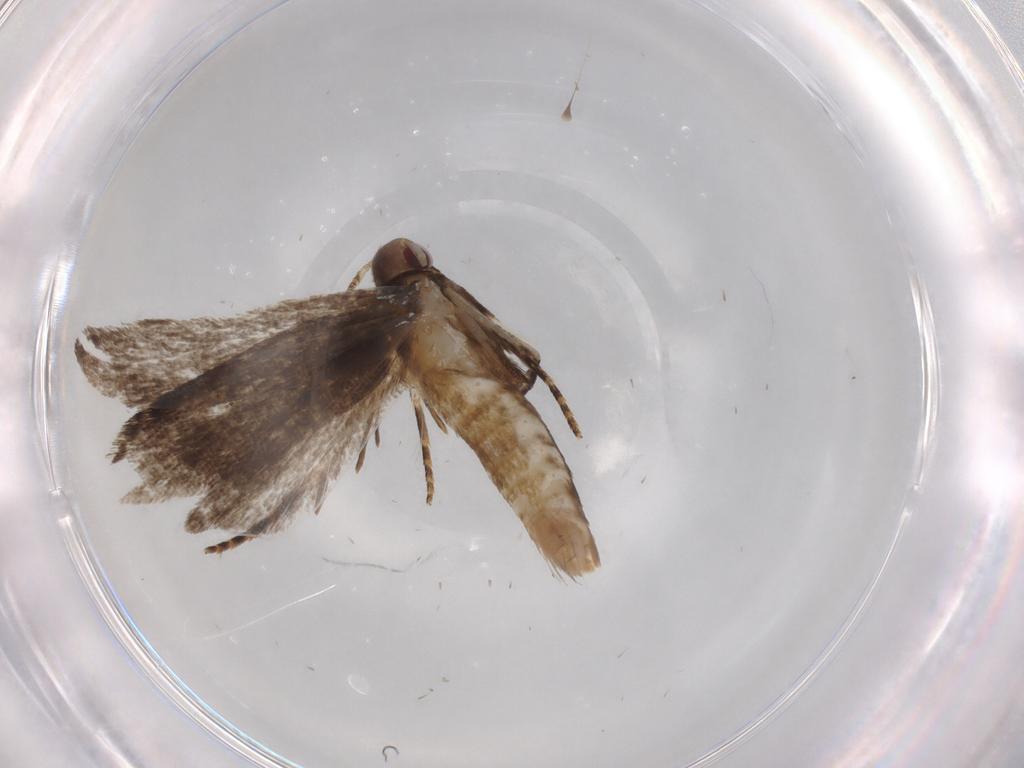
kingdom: Animalia
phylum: Arthropoda
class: Insecta
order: Lepidoptera
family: Gelechiidae
